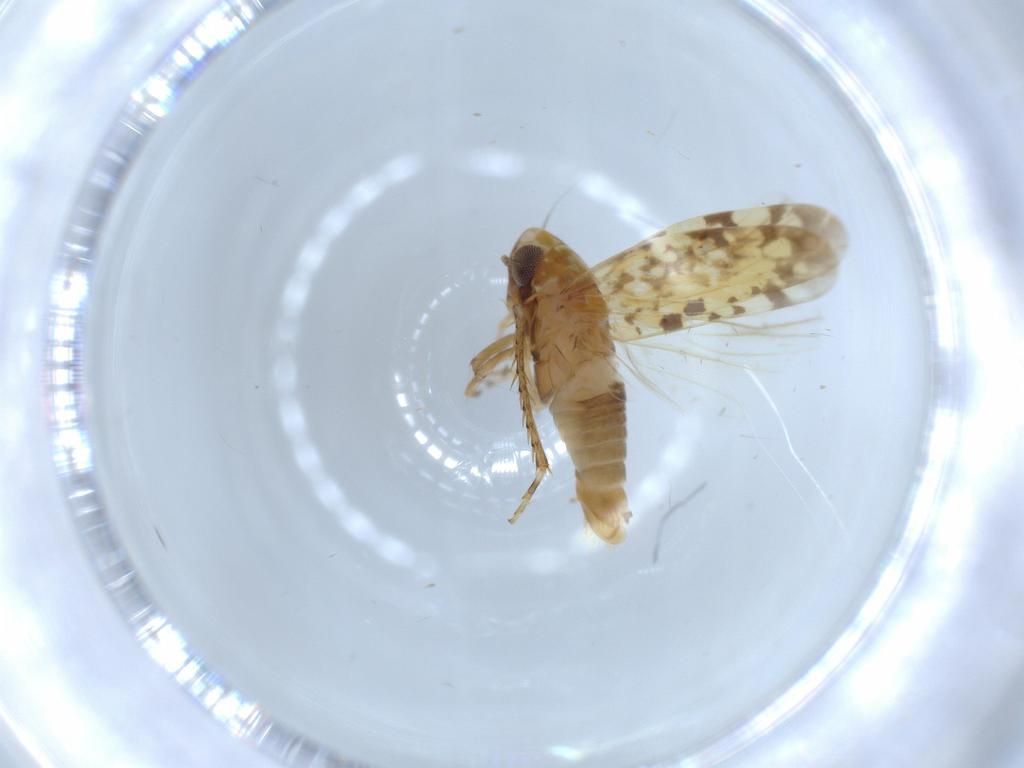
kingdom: Animalia
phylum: Arthropoda
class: Insecta
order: Hemiptera
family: Cicadellidae
